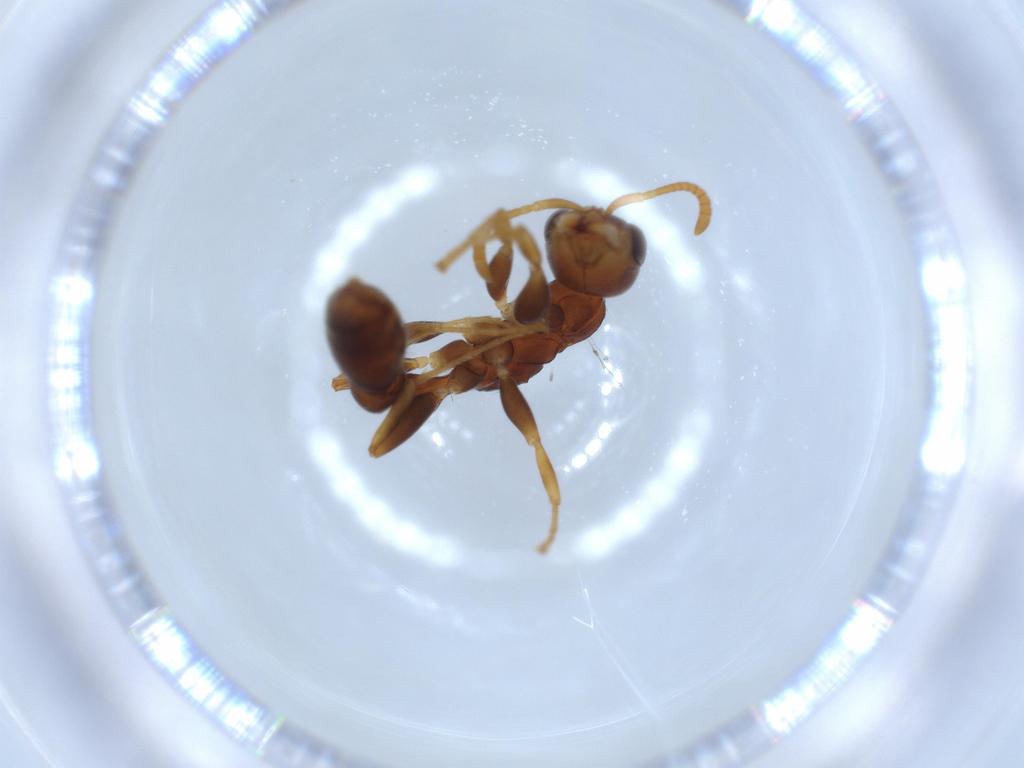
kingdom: Animalia
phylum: Arthropoda
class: Insecta
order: Hymenoptera
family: Formicidae
